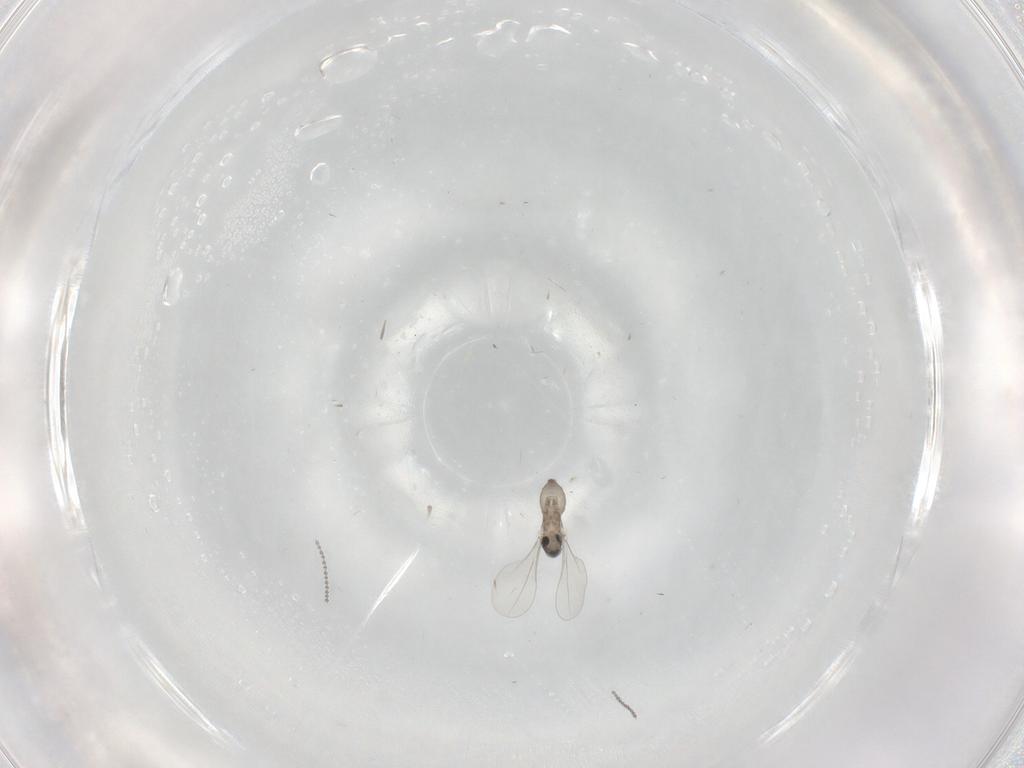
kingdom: Animalia
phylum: Arthropoda
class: Insecta
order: Diptera
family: Cecidomyiidae
